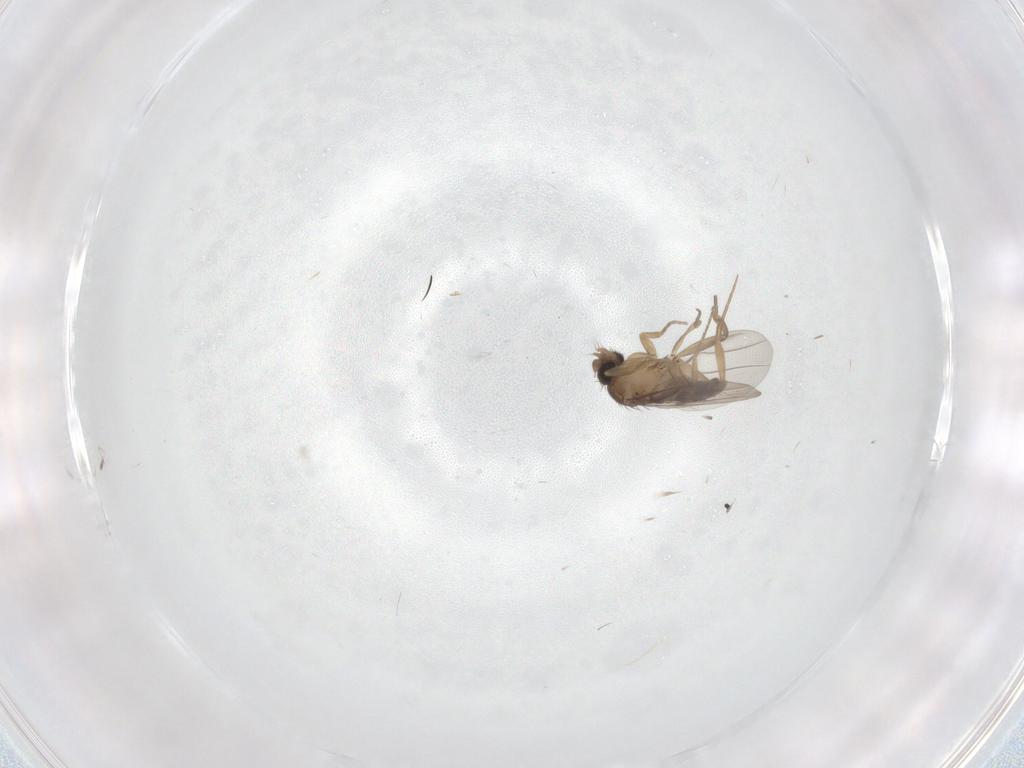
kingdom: Animalia
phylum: Arthropoda
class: Insecta
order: Diptera
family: Phoridae
